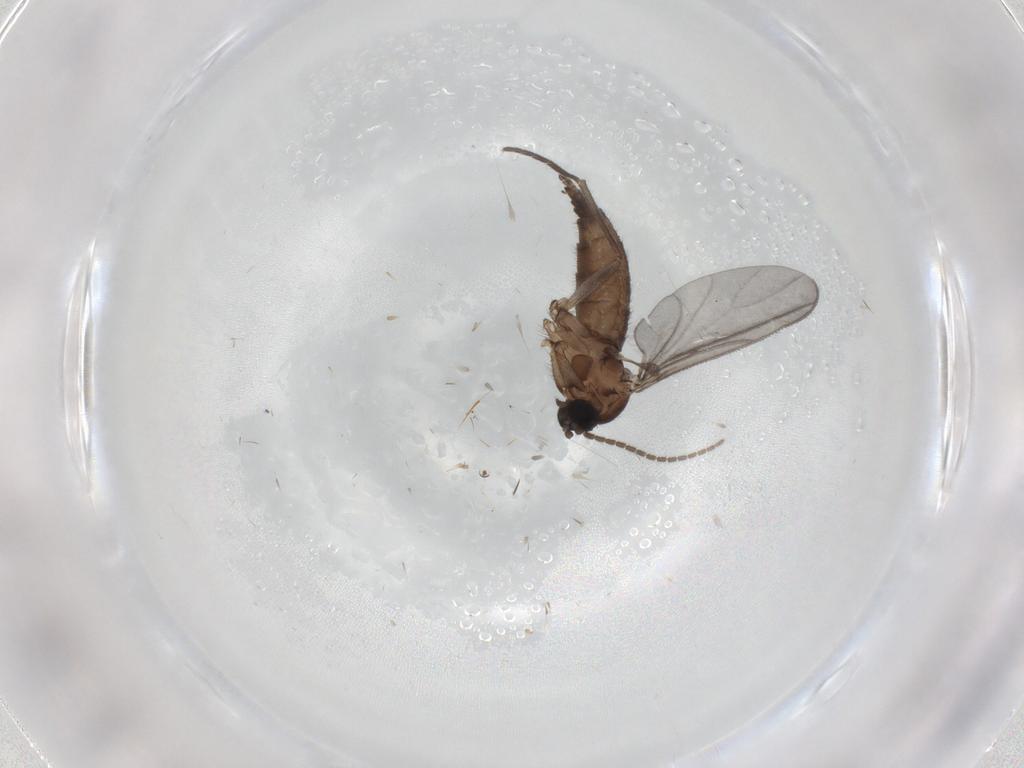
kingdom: Animalia
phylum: Arthropoda
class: Insecta
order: Diptera
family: Sciaridae
